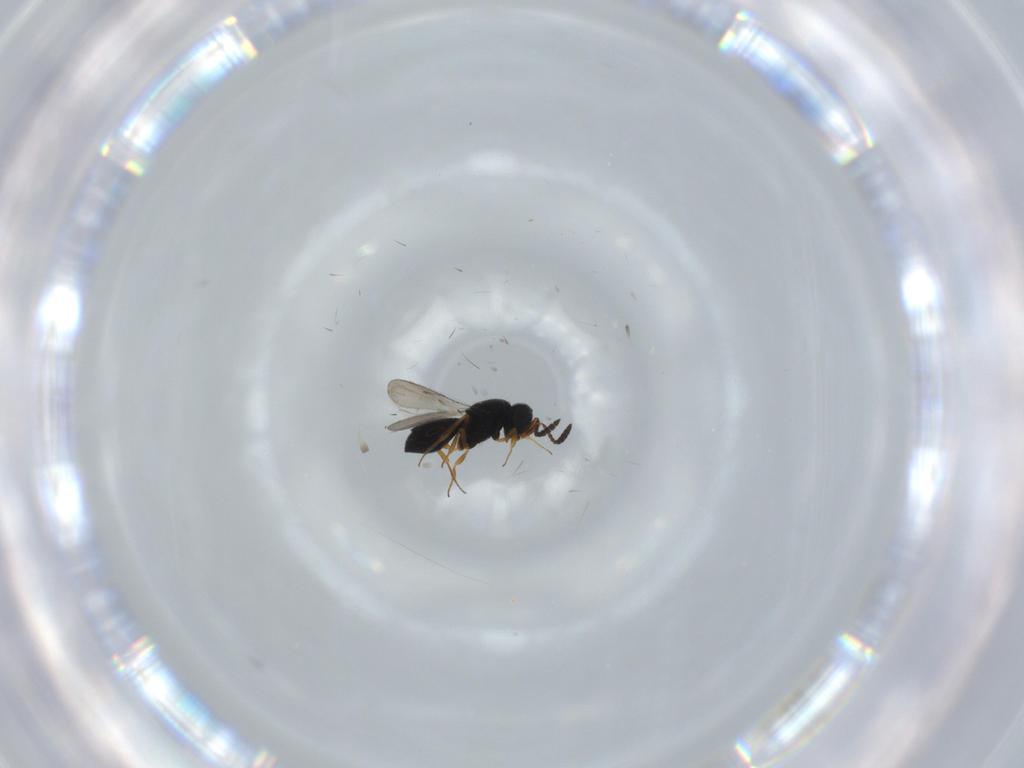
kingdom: Animalia
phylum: Arthropoda
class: Insecta
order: Hymenoptera
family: Scelionidae
